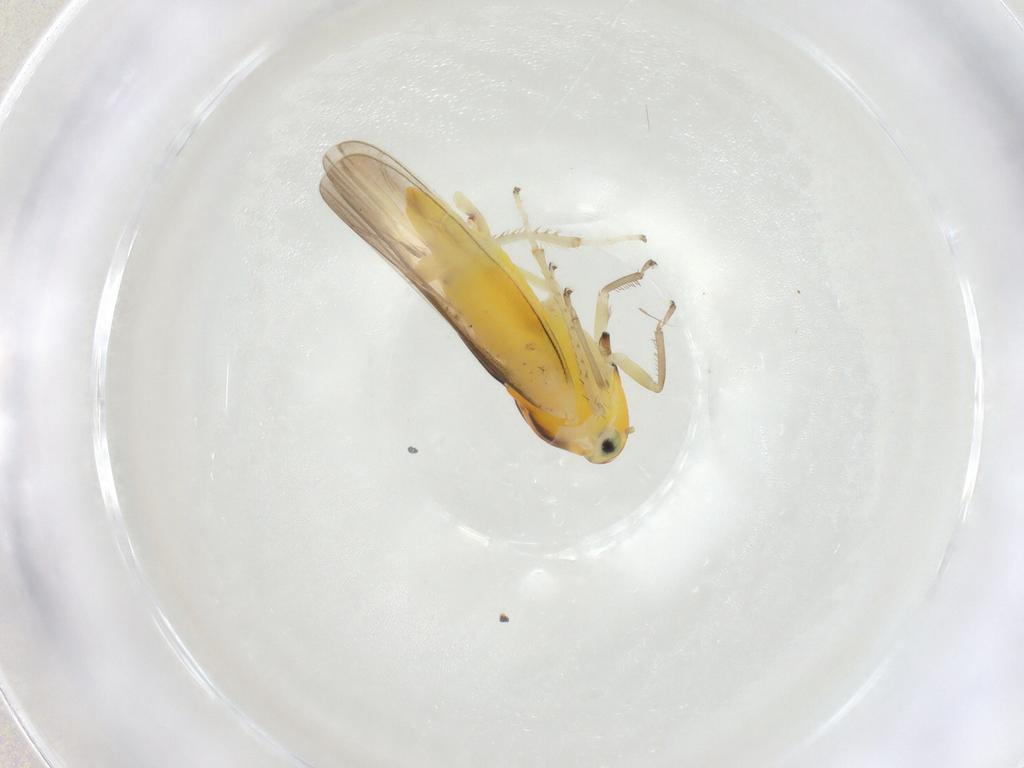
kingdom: Animalia
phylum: Arthropoda
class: Insecta
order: Hemiptera
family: Cicadellidae
